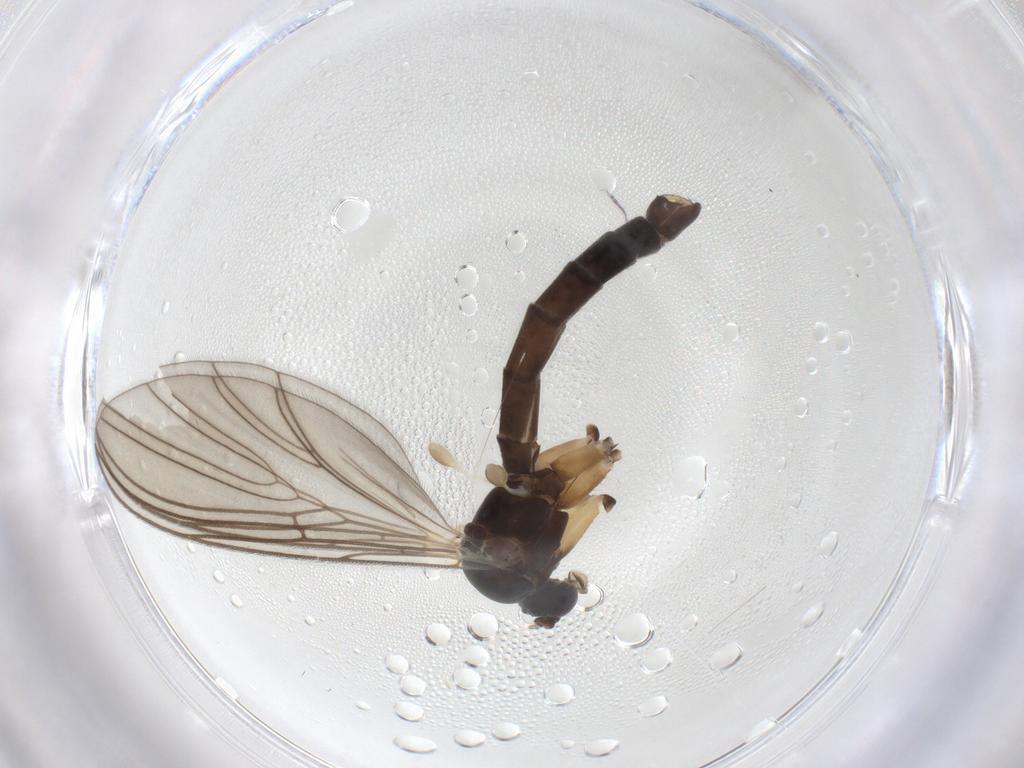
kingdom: Animalia
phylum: Arthropoda
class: Insecta
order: Diptera
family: Mycetophilidae
